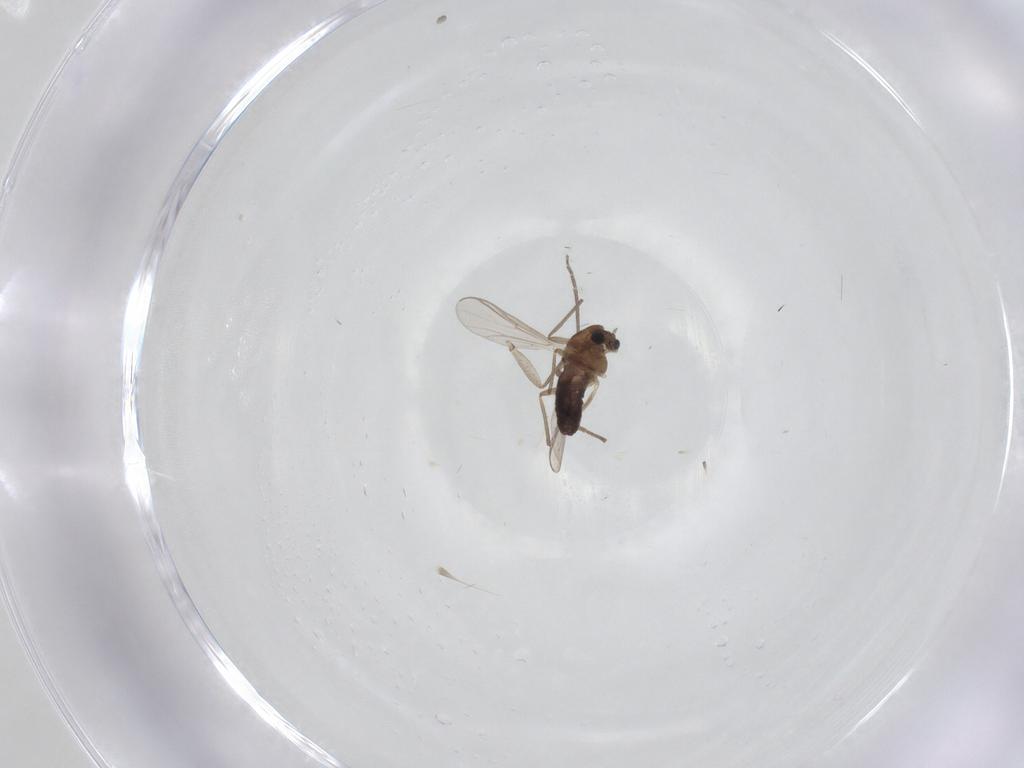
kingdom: Animalia
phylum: Arthropoda
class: Insecta
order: Diptera
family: Chironomidae
